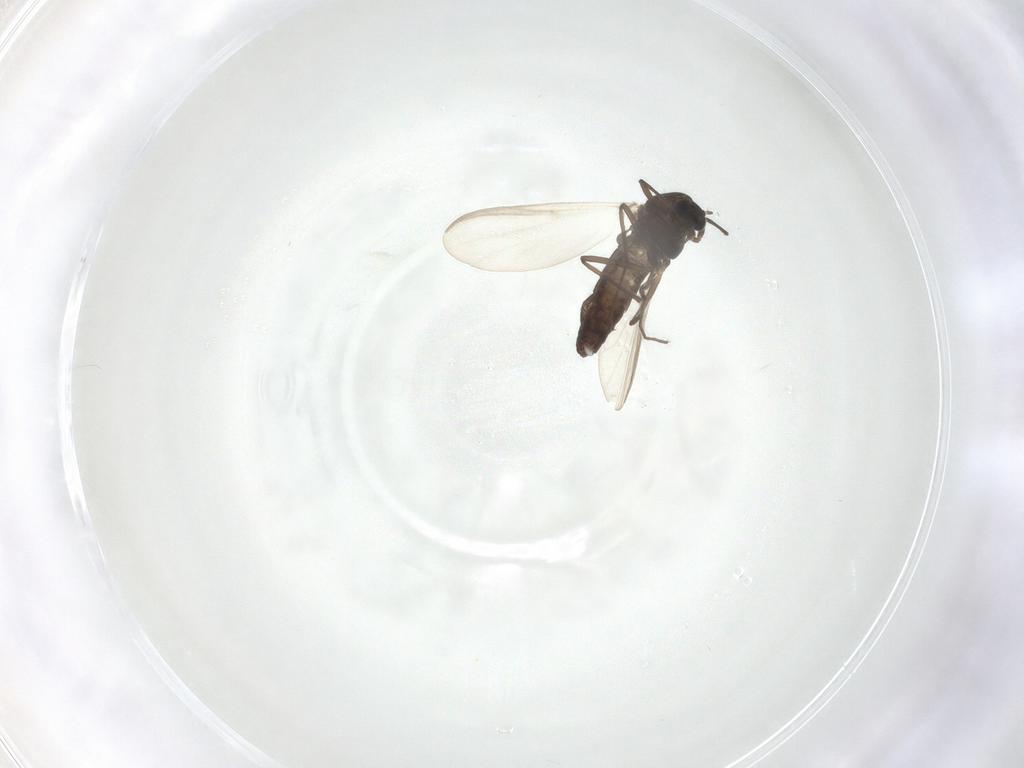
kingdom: Animalia
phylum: Arthropoda
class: Insecta
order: Diptera
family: Chironomidae
